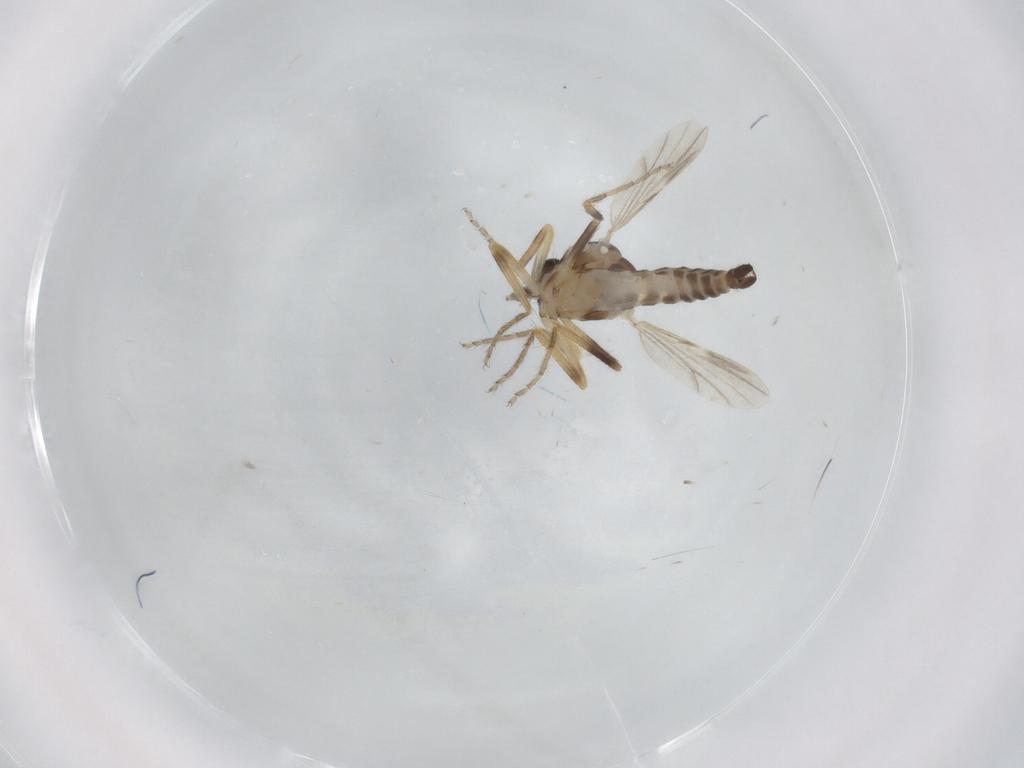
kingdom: Animalia
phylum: Arthropoda
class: Insecta
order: Diptera
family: Ceratopogonidae
